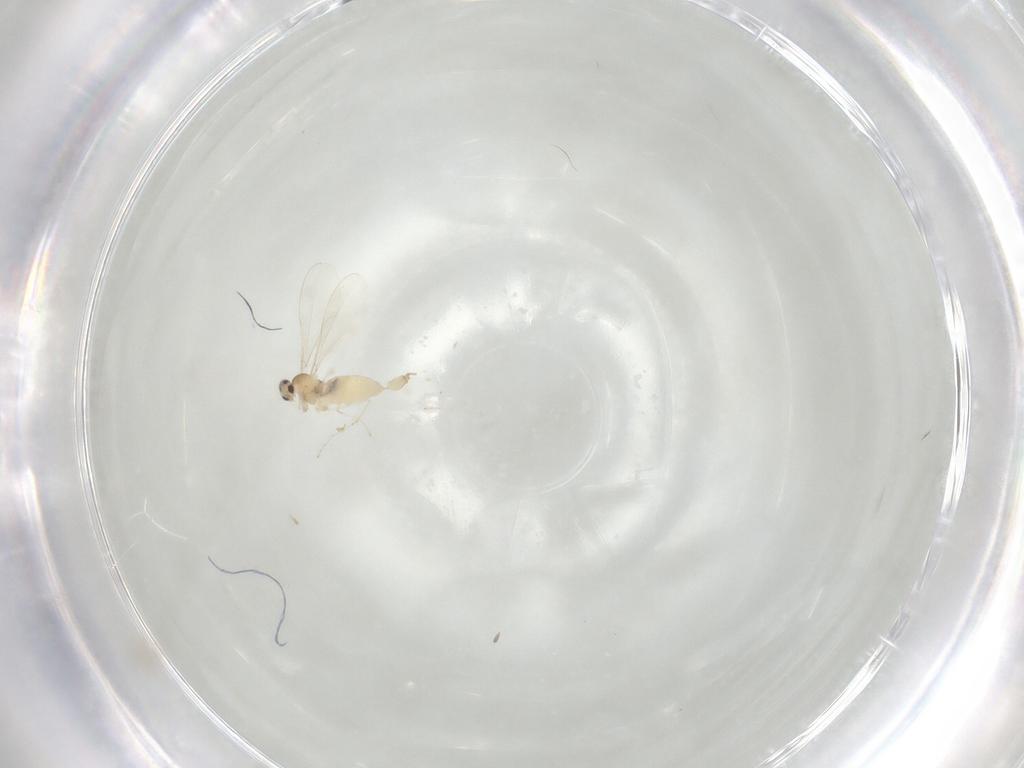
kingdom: Animalia
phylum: Arthropoda
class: Insecta
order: Diptera
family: Cecidomyiidae
